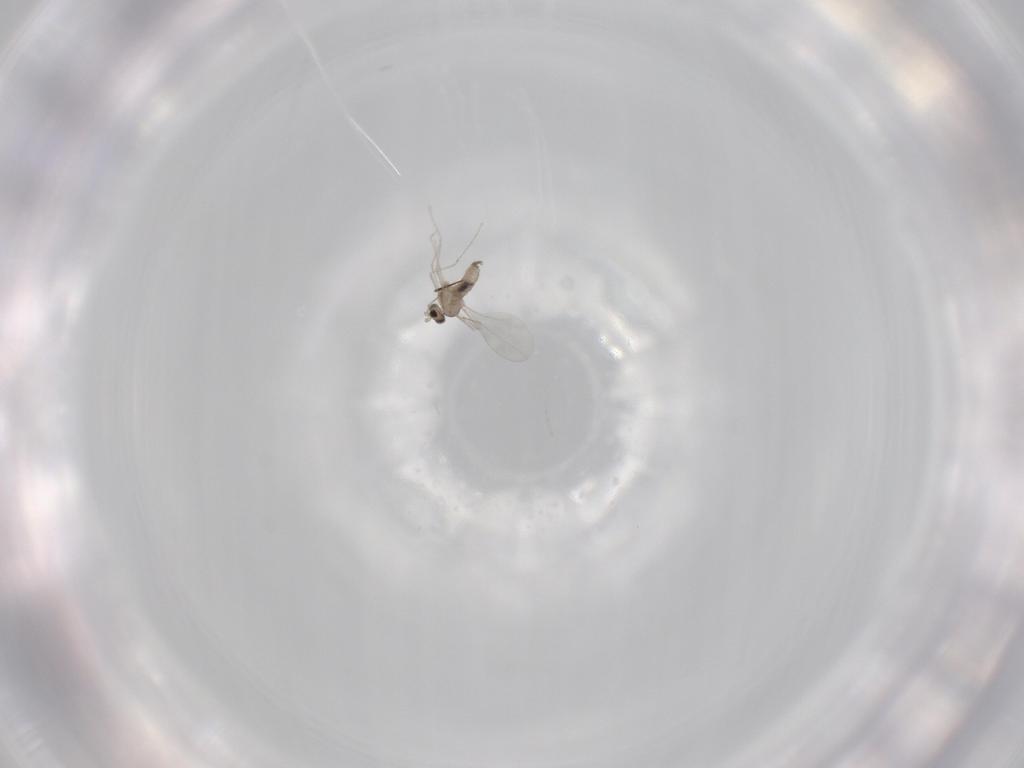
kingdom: Animalia
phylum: Arthropoda
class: Insecta
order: Diptera
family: Cecidomyiidae
